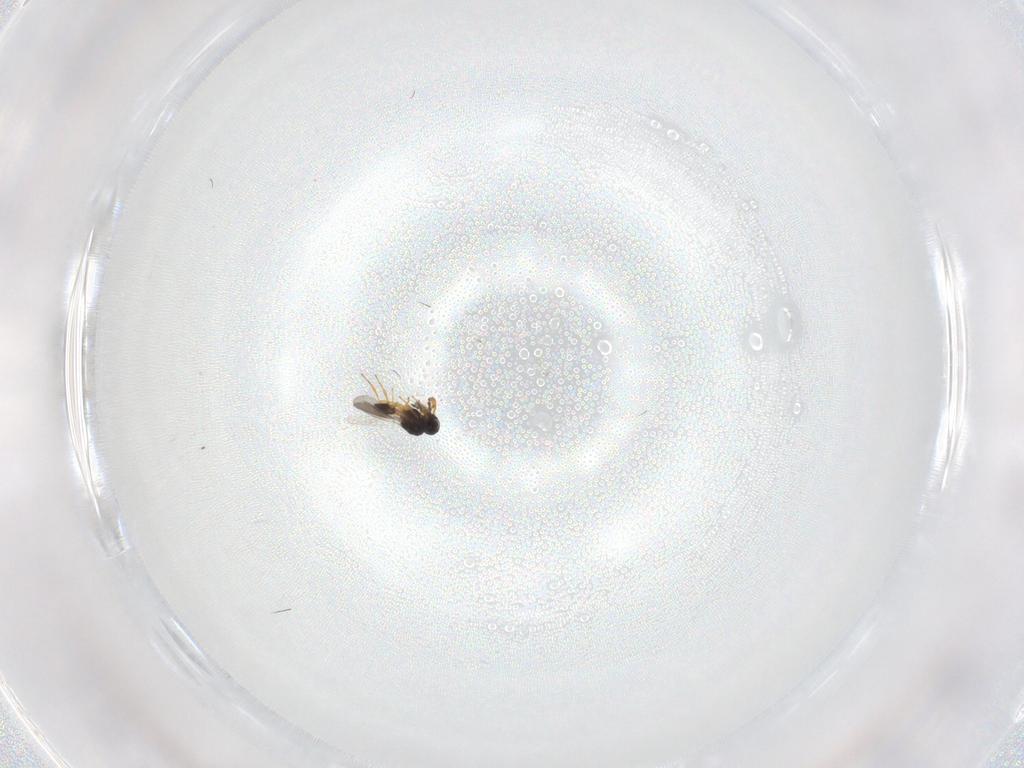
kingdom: Animalia
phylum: Arthropoda
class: Insecta
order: Hymenoptera
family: Platygastridae
